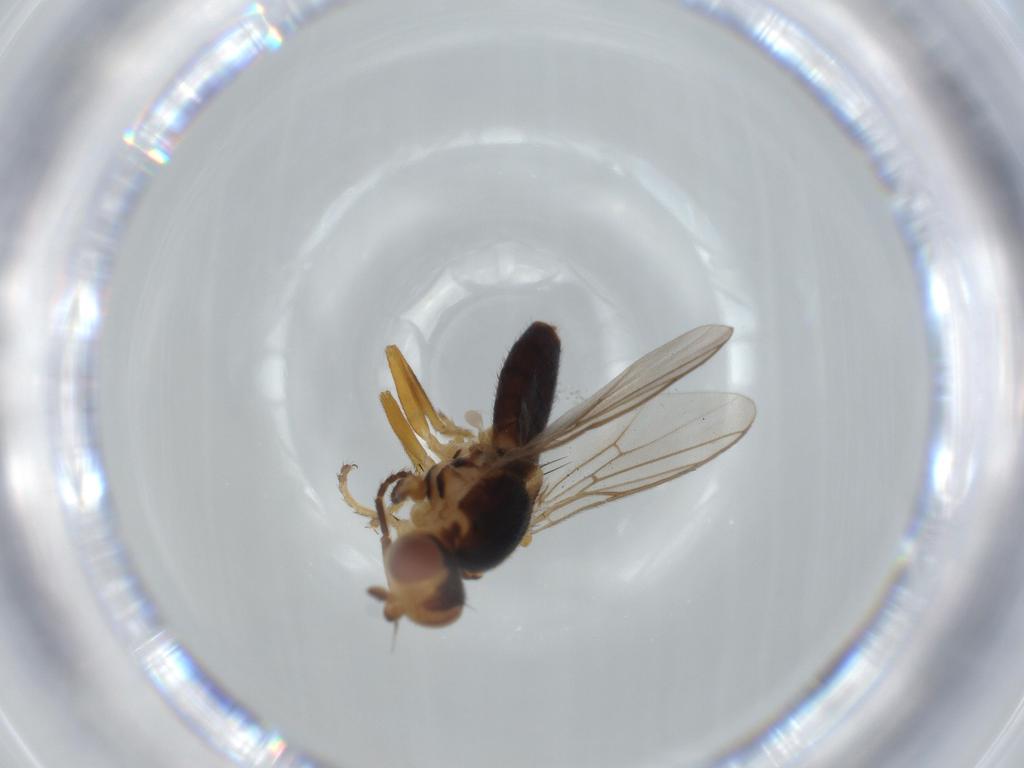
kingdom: Animalia
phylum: Arthropoda
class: Insecta
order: Diptera
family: Chloropidae
